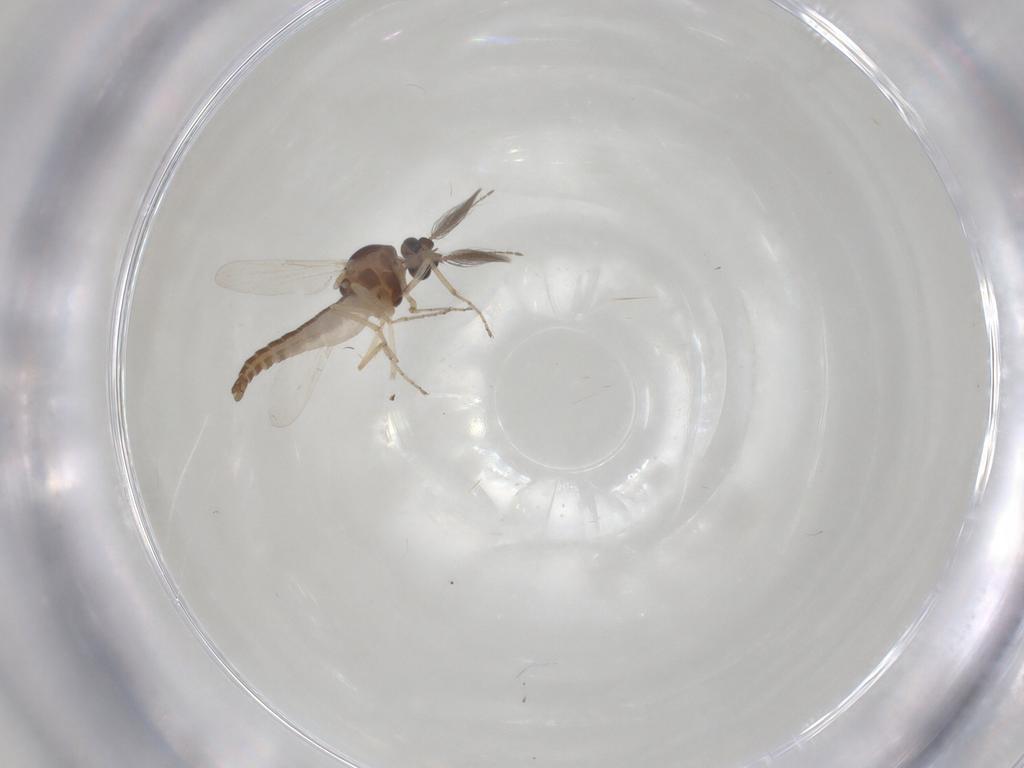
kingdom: Animalia
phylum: Arthropoda
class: Insecta
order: Diptera
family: Ceratopogonidae
